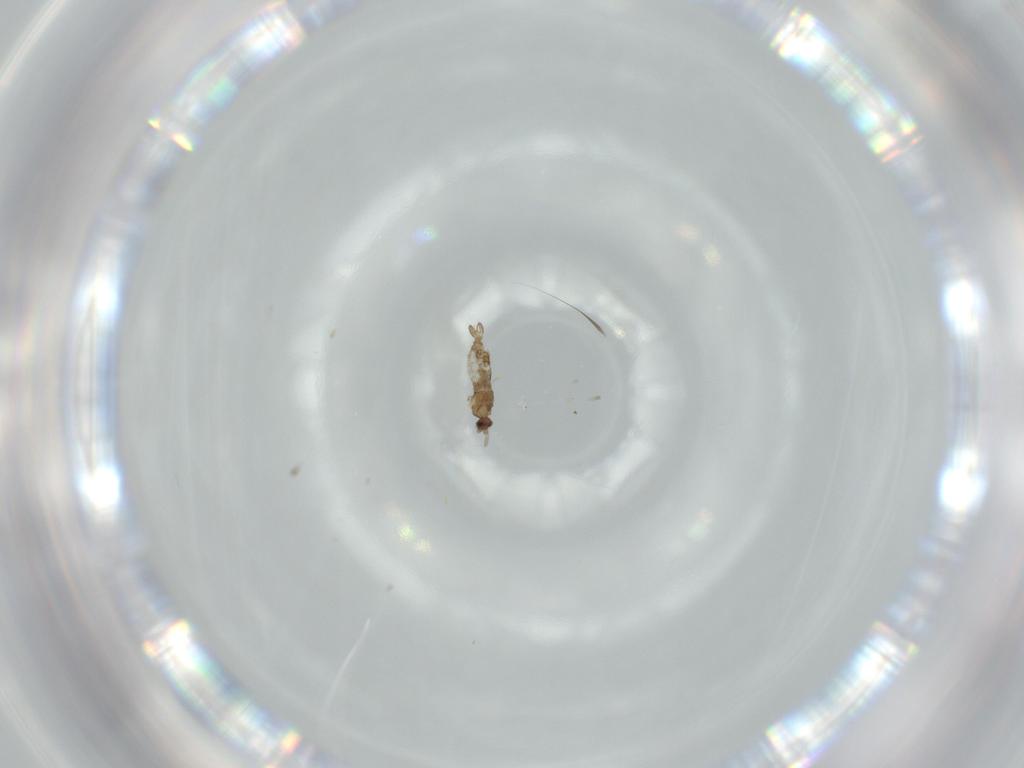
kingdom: Animalia
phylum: Arthropoda
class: Insecta
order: Diptera
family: Cecidomyiidae
